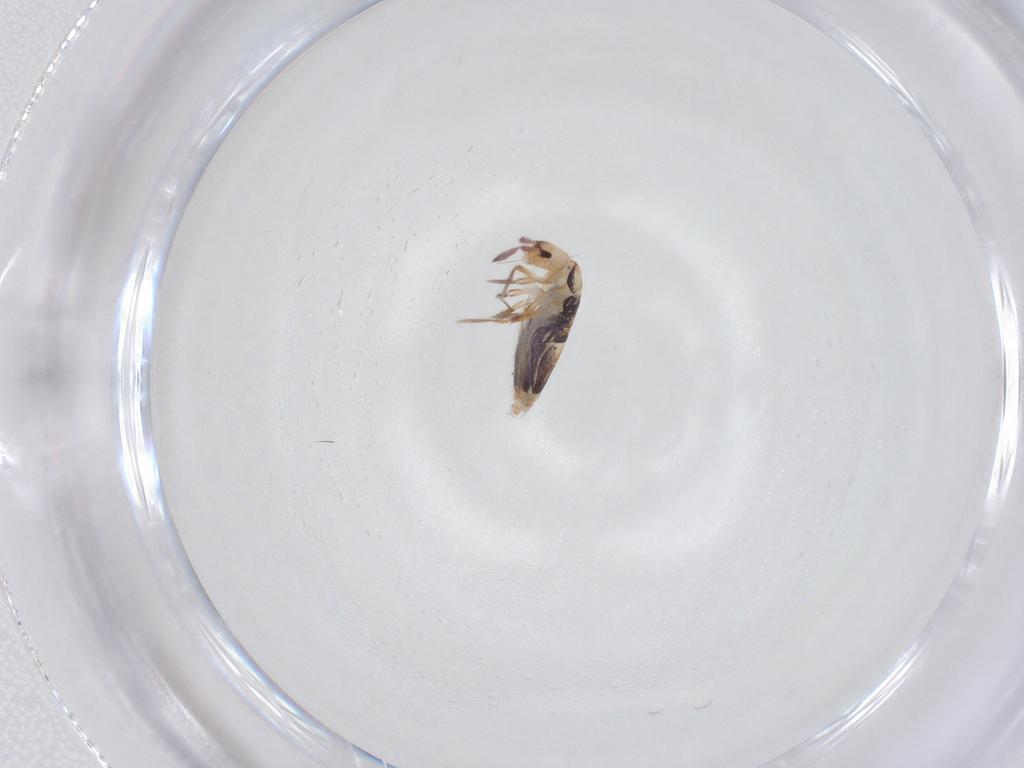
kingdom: Animalia
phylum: Arthropoda
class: Collembola
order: Entomobryomorpha
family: Entomobryidae
